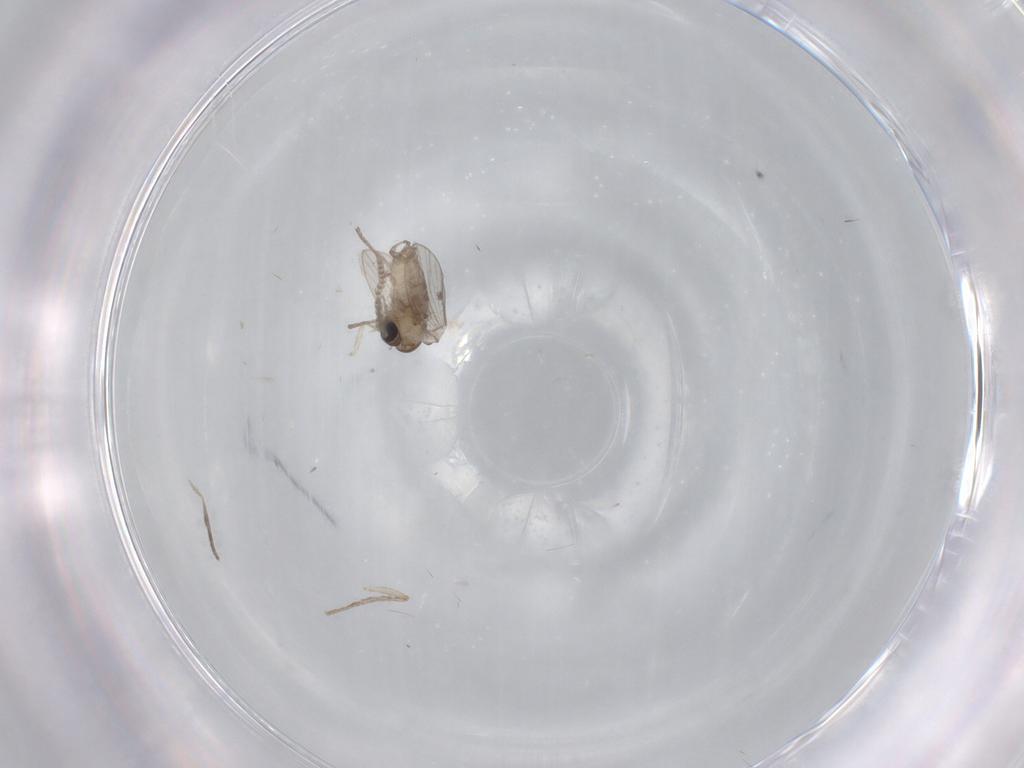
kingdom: Animalia
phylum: Arthropoda
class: Insecta
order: Diptera
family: Psychodidae
